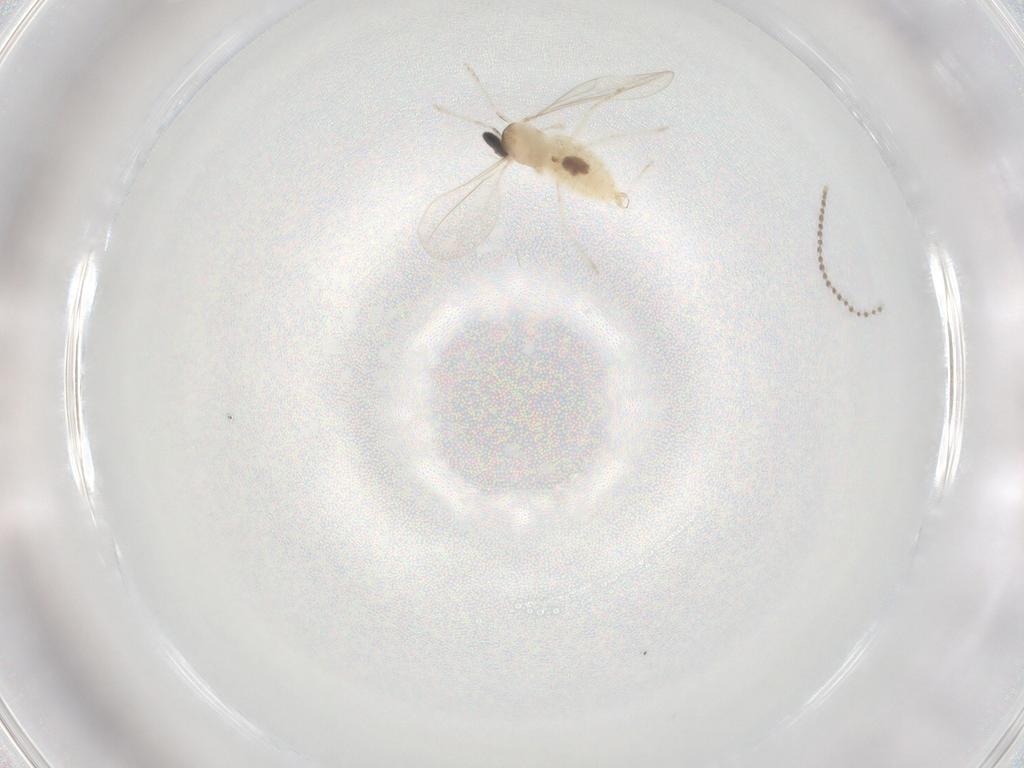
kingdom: Animalia
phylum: Arthropoda
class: Insecta
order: Diptera
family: Cecidomyiidae
